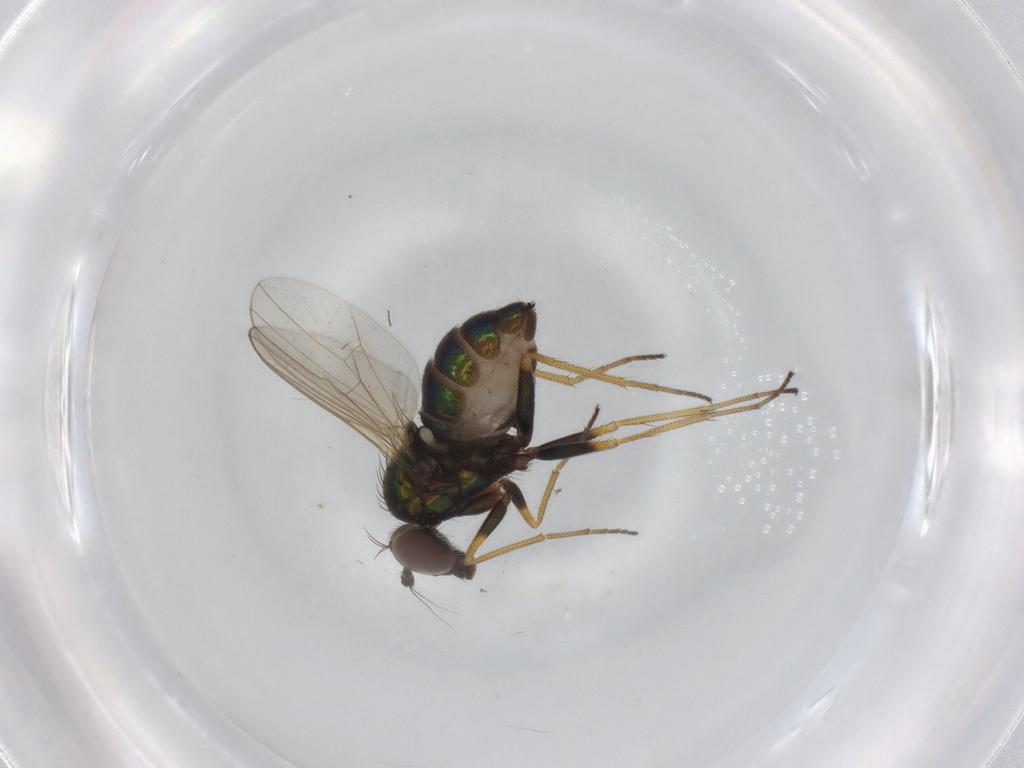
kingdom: Animalia
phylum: Arthropoda
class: Insecta
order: Diptera
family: Dolichopodidae
